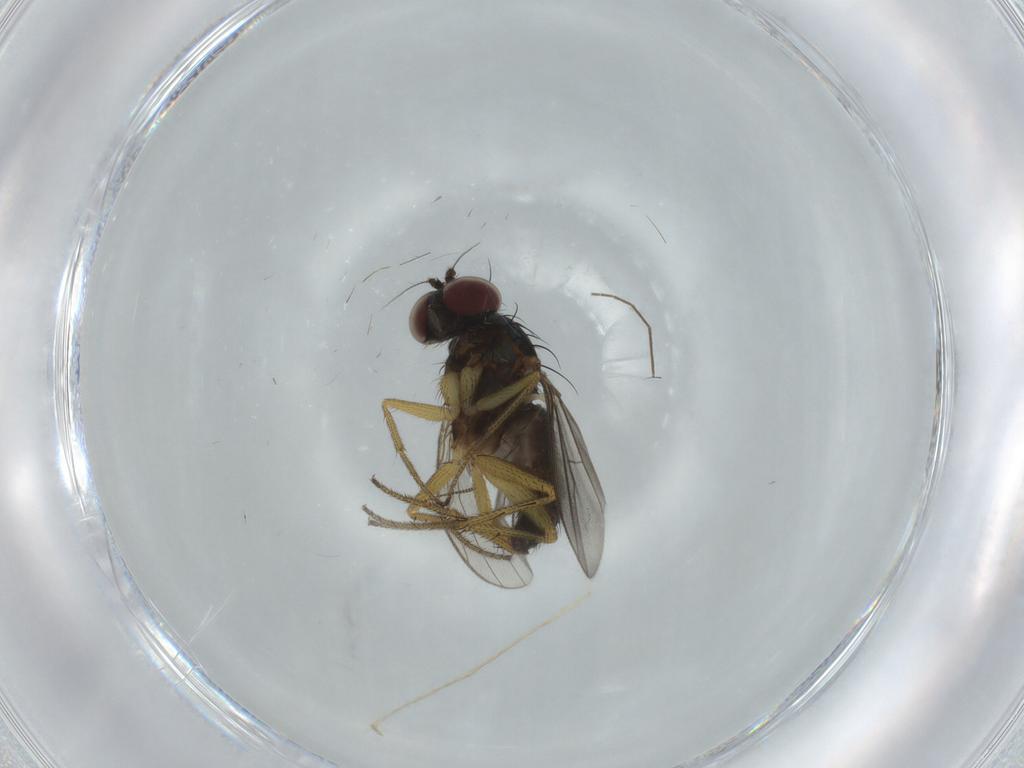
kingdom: Animalia
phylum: Arthropoda
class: Insecta
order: Diptera
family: Dolichopodidae
